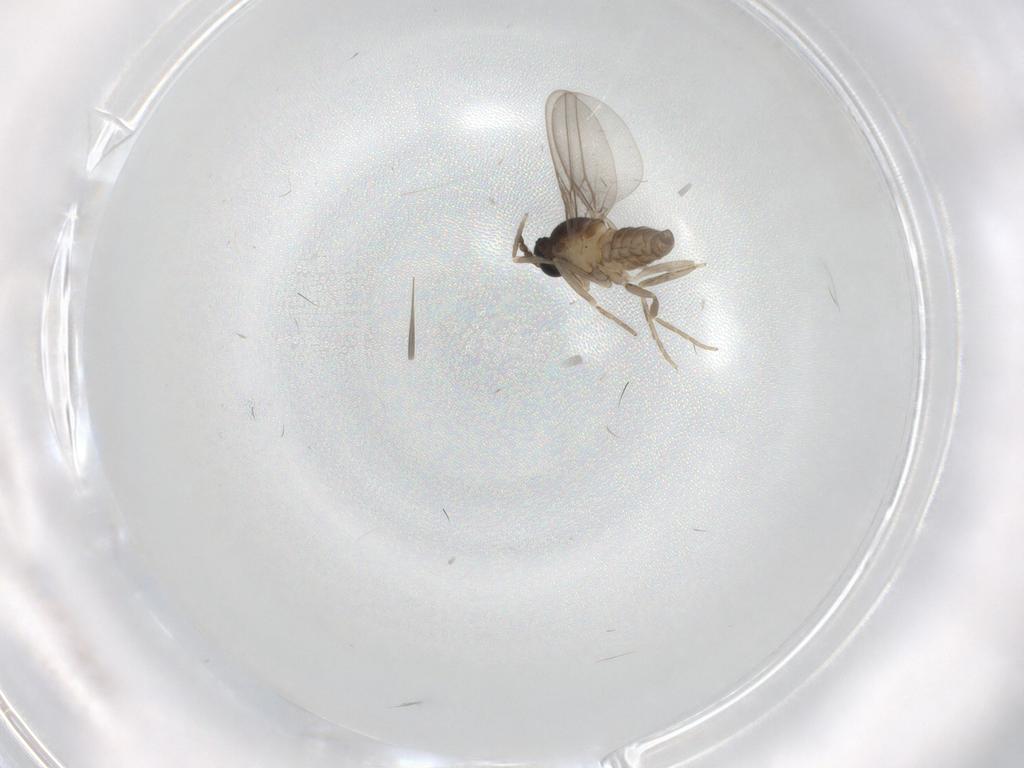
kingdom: Animalia
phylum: Arthropoda
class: Insecta
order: Diptera
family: Cecidomyiidae
